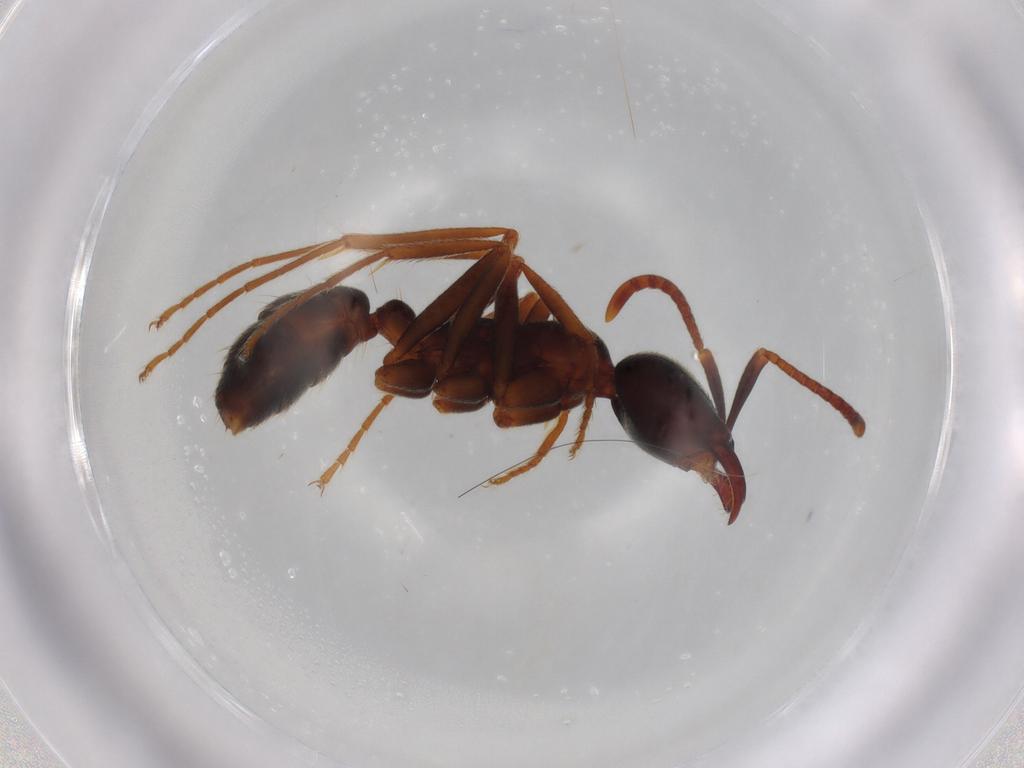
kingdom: Animalia
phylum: Arthropoda
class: Insecta
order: Hymenoptera
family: Formicidae
